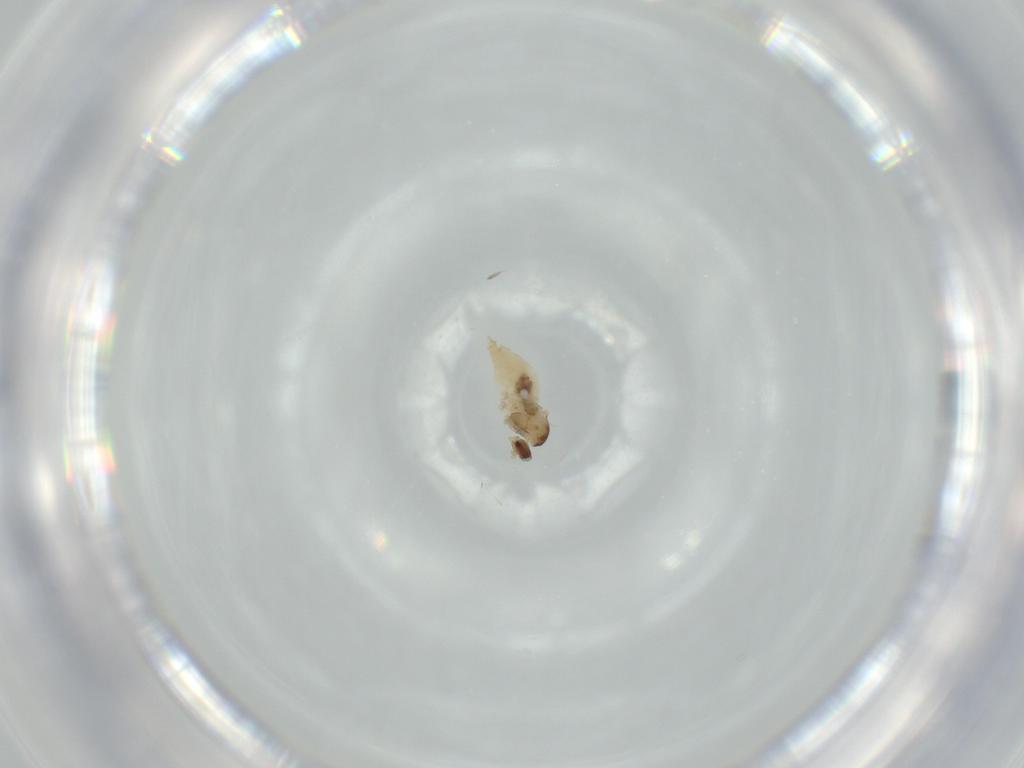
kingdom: Animalia
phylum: Arthropoda
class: Insecta
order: Diptera
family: Cecidomyiidae
